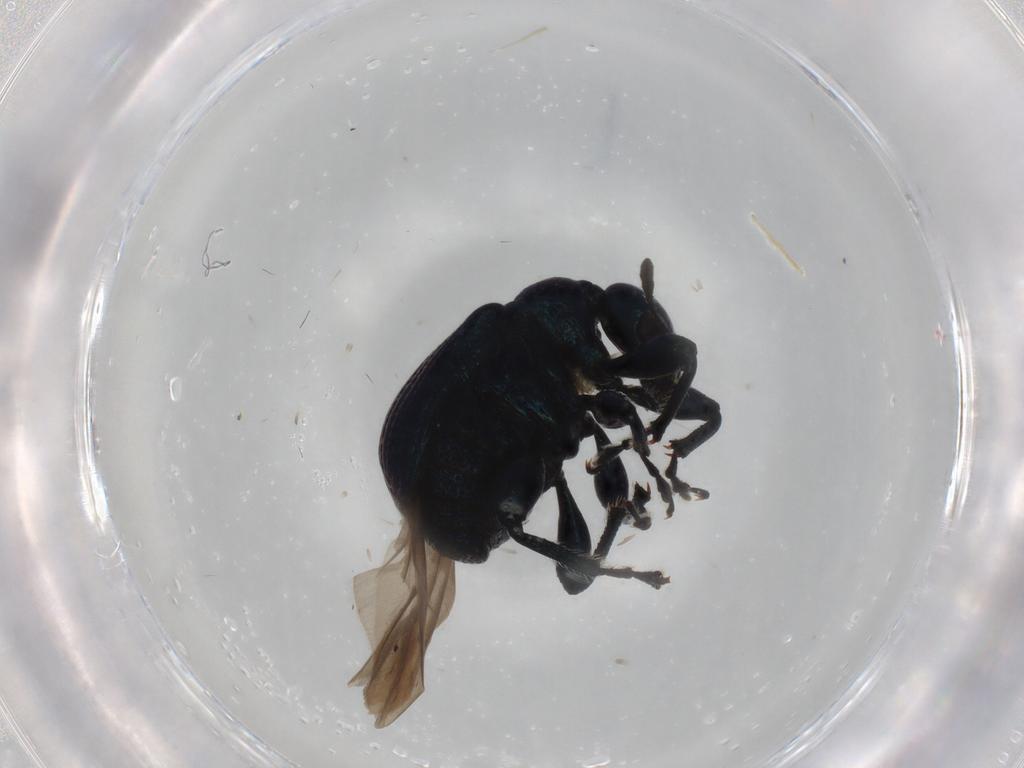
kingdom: Animalia
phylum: Arthropoda
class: Insecta
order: Coleoptera
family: Attelabidae
